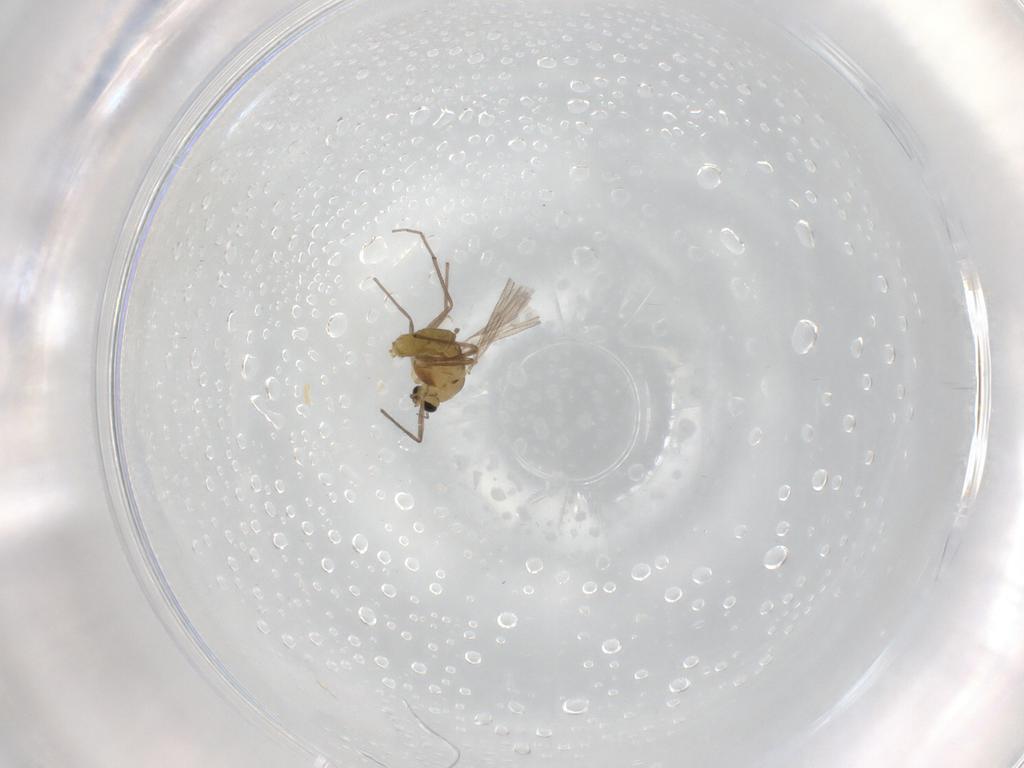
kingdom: Animalia
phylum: Arthropoda
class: Insecta
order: Diptera
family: Chironomidae
